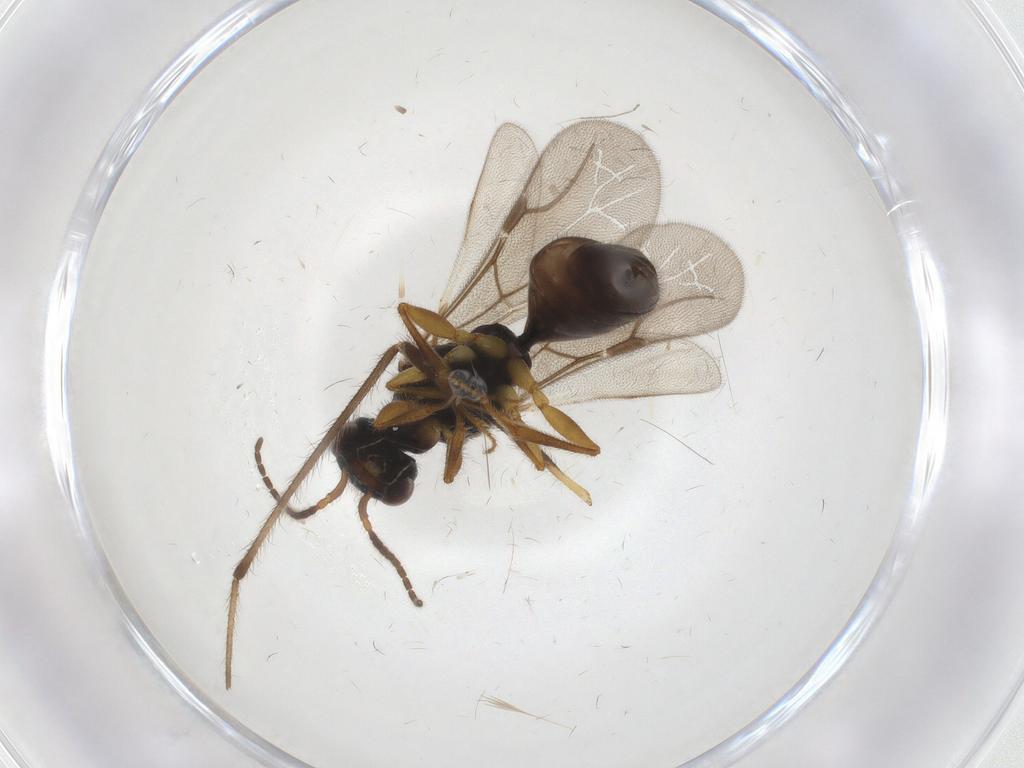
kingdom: Animalia
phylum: Arthropoda
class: Insecta
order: Hymenoptera
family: Bethylidae
